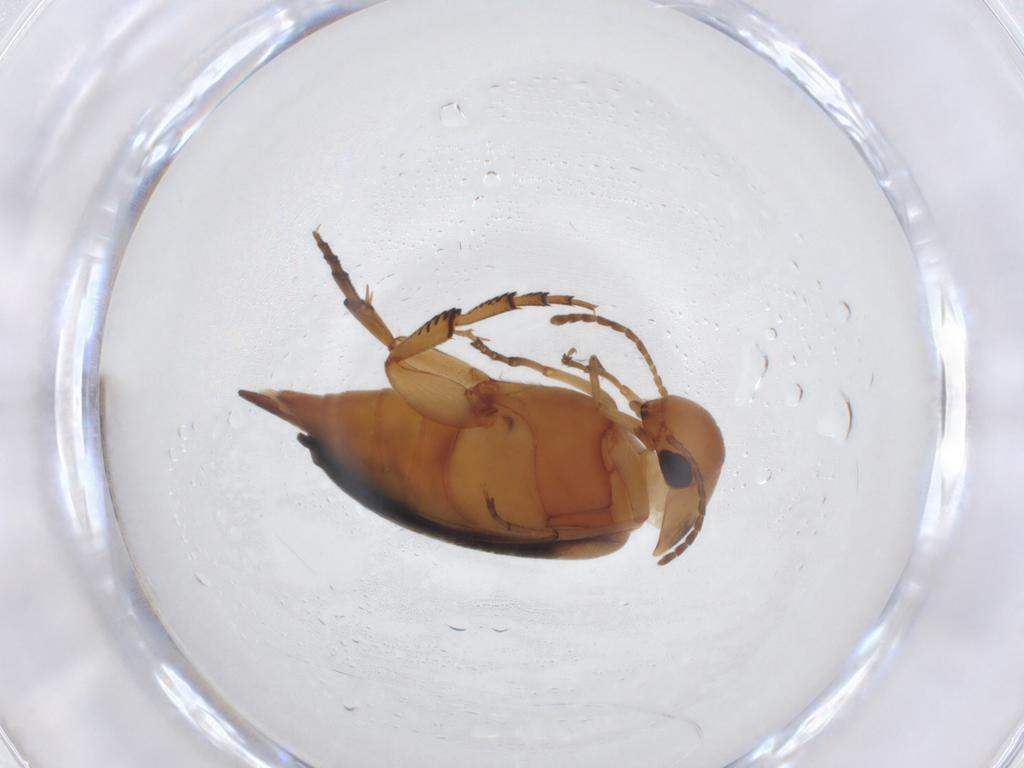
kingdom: Animalia
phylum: Arthropoda
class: Insecta
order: Coleoptera
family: Mordellidae
